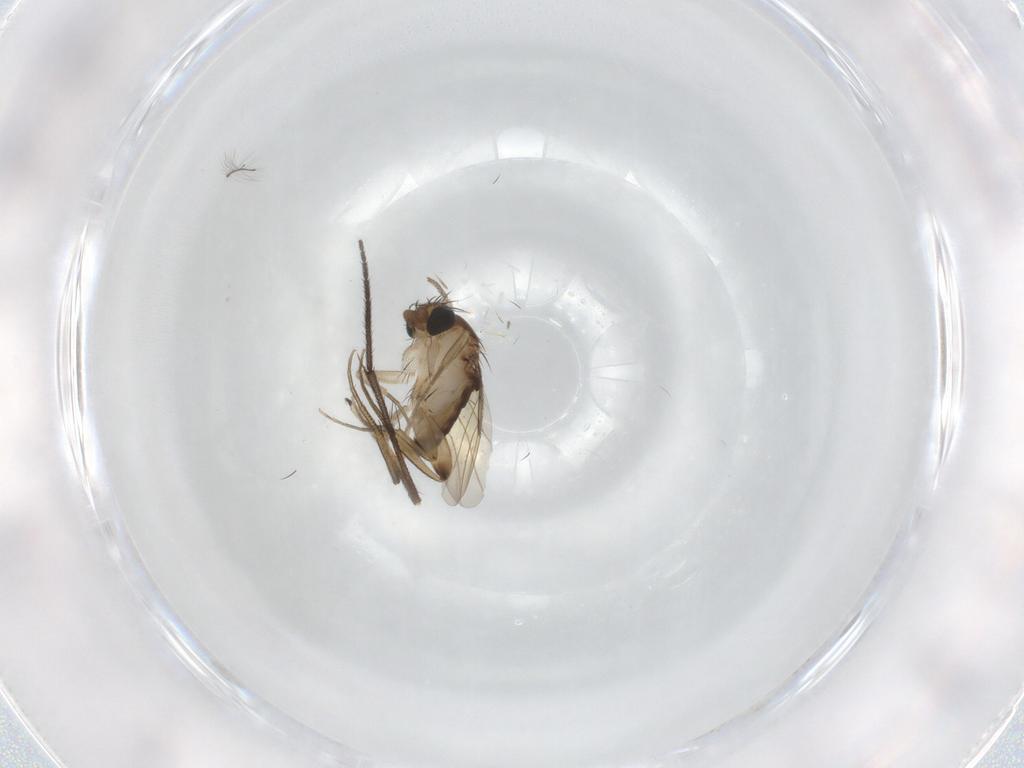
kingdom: Animalia
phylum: Arthropoda
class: Insecta
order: Diptera
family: Phoridae
